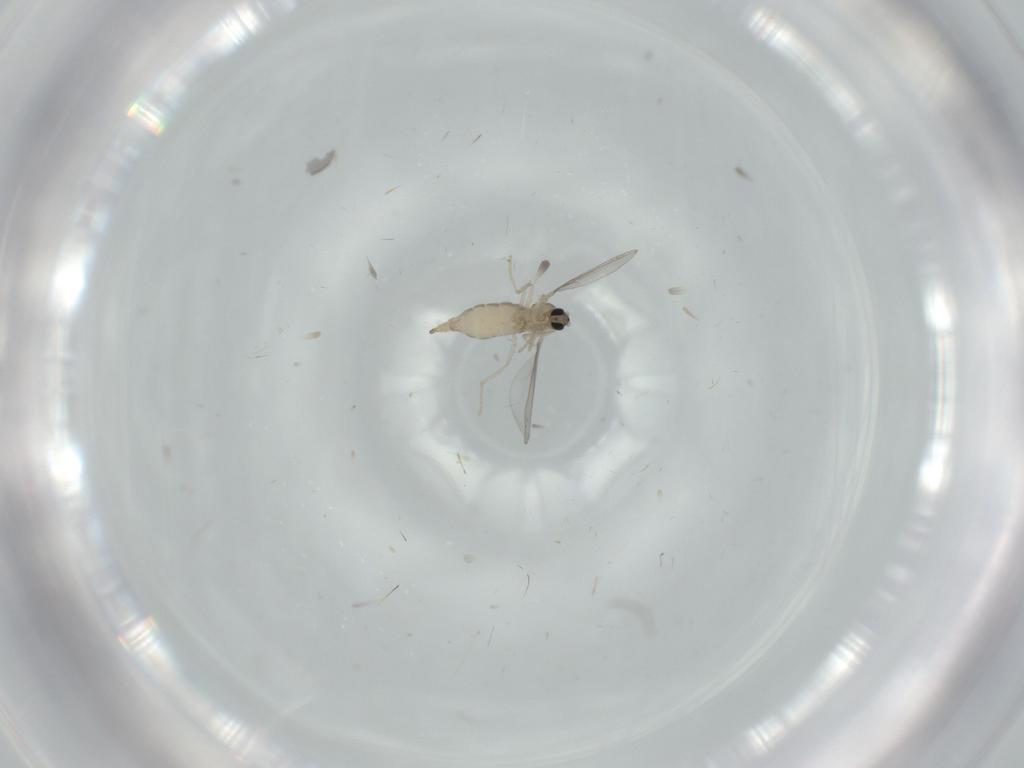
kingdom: Animalia
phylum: Arthropoda
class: Insecta
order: Diptera
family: Cecidomyiidae
